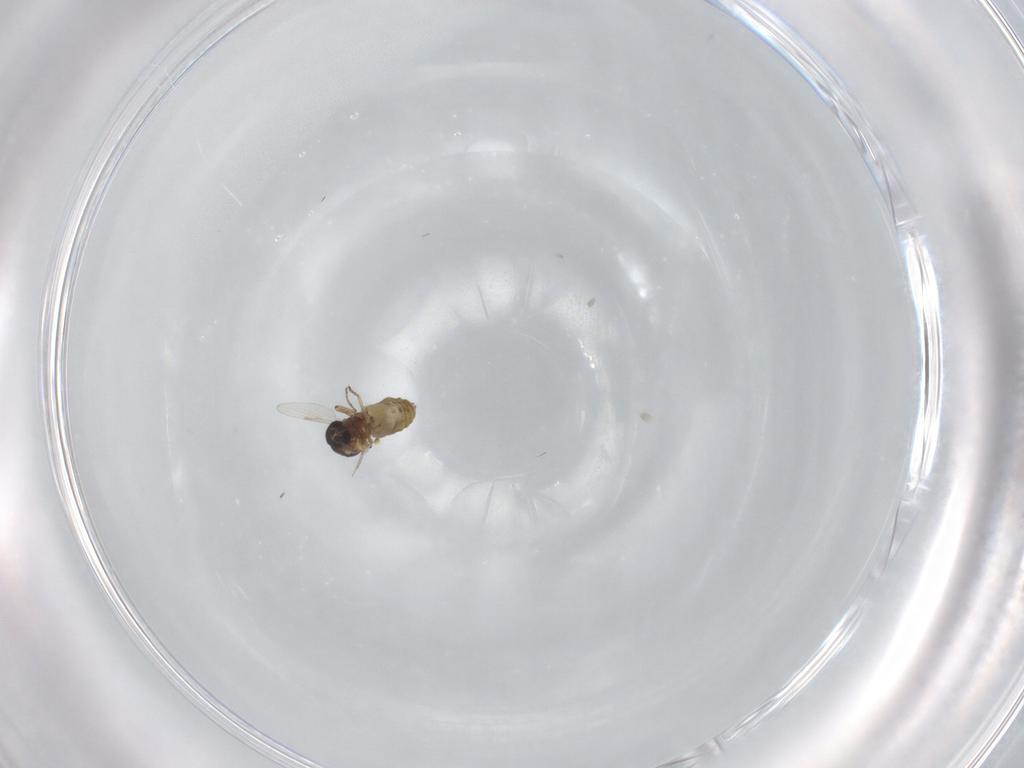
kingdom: Animalia
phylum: Arthropoda
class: Insecta
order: Diptera
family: Ceratopogonidae
